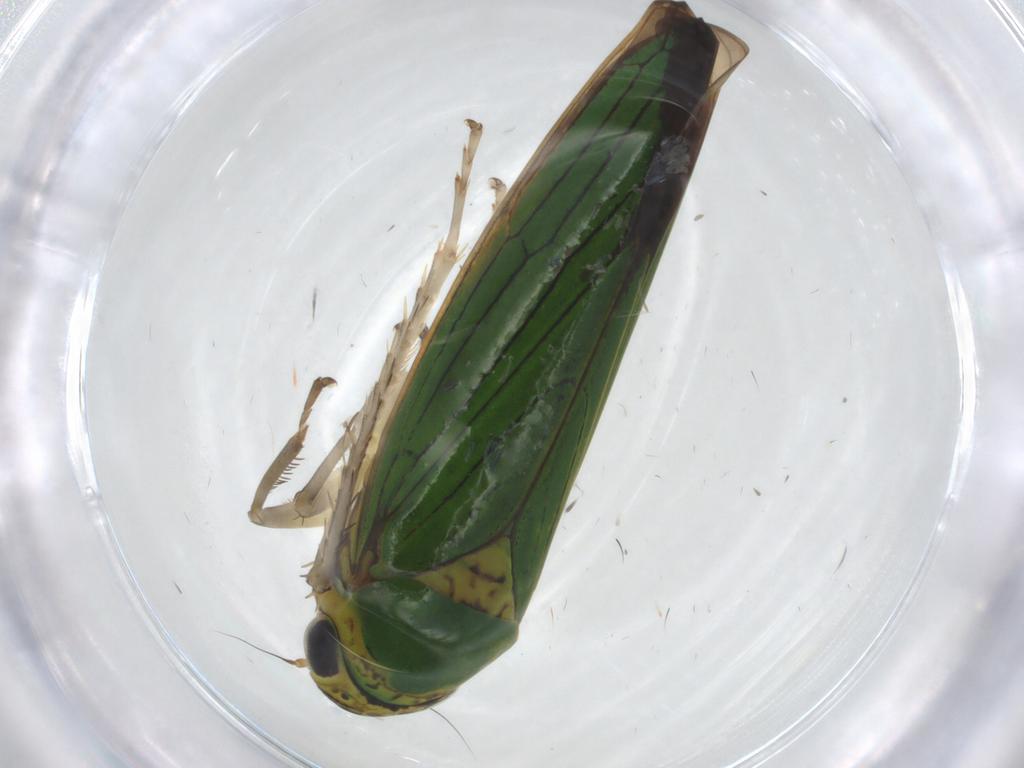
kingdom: Animalia
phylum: Arthropoda
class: Insecta
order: Hemiptera
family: Cicadellidae
